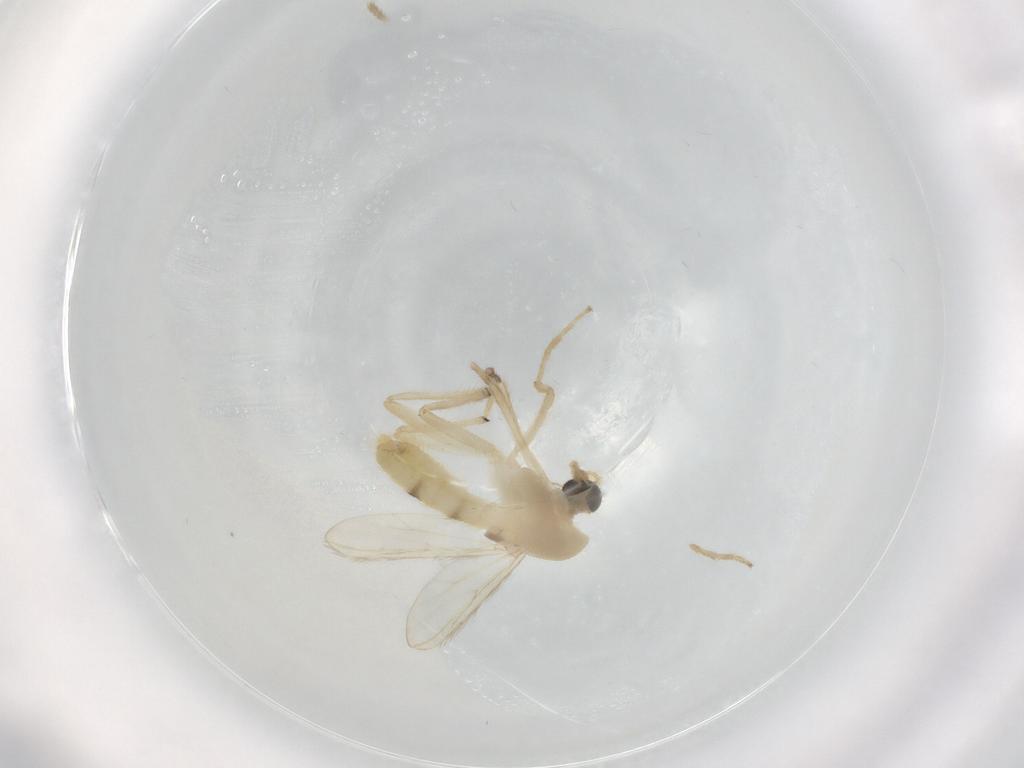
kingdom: Animalia
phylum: Arthropoda
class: Insecta
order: Diptera
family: Chironomidae
